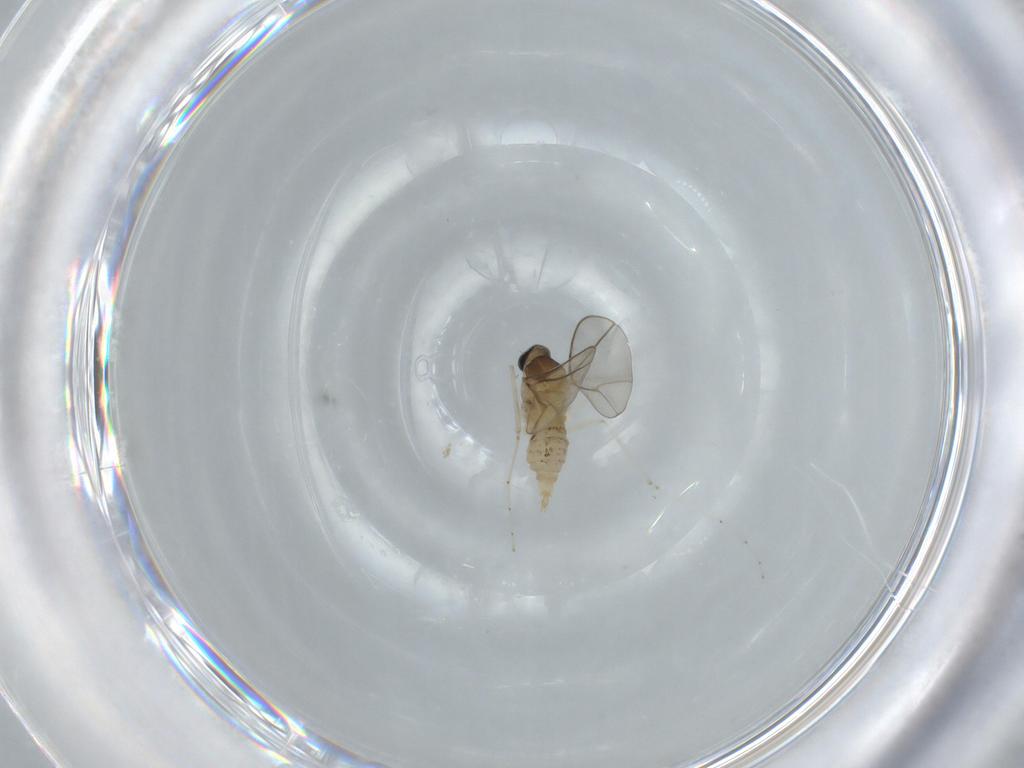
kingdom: Animalia
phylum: Arthropoda
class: Insecta
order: Diptera
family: Cecidomyiidae
